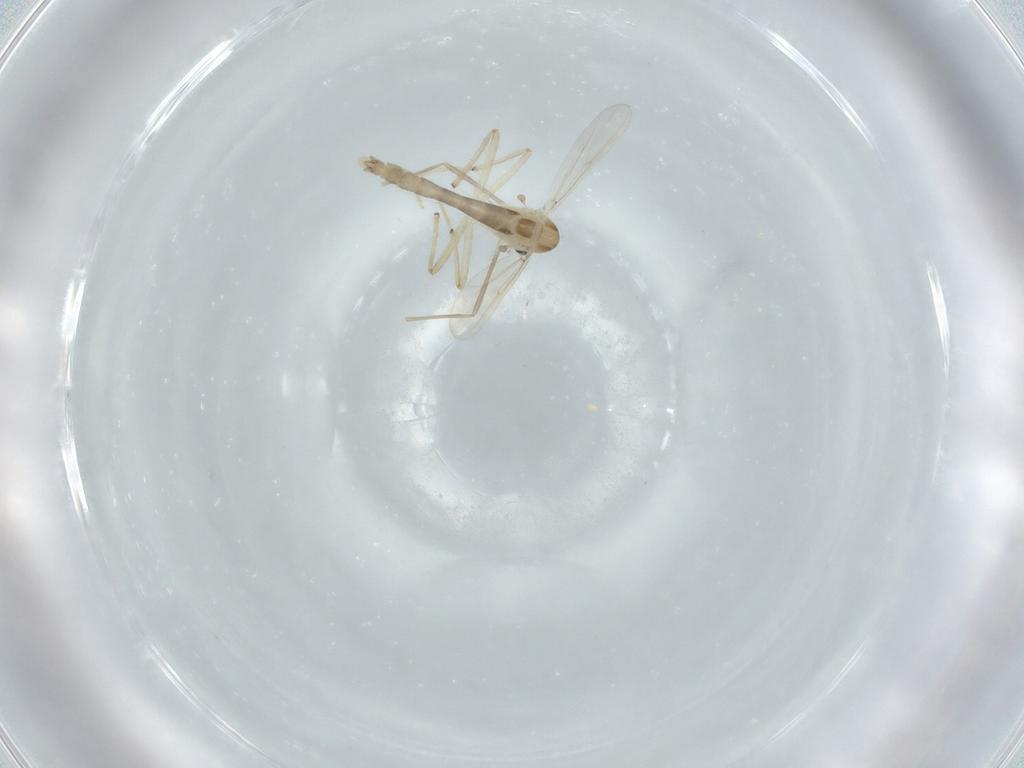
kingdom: Animalia
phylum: Arthropoda
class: Insecta
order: Diptera
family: Chironomidae
